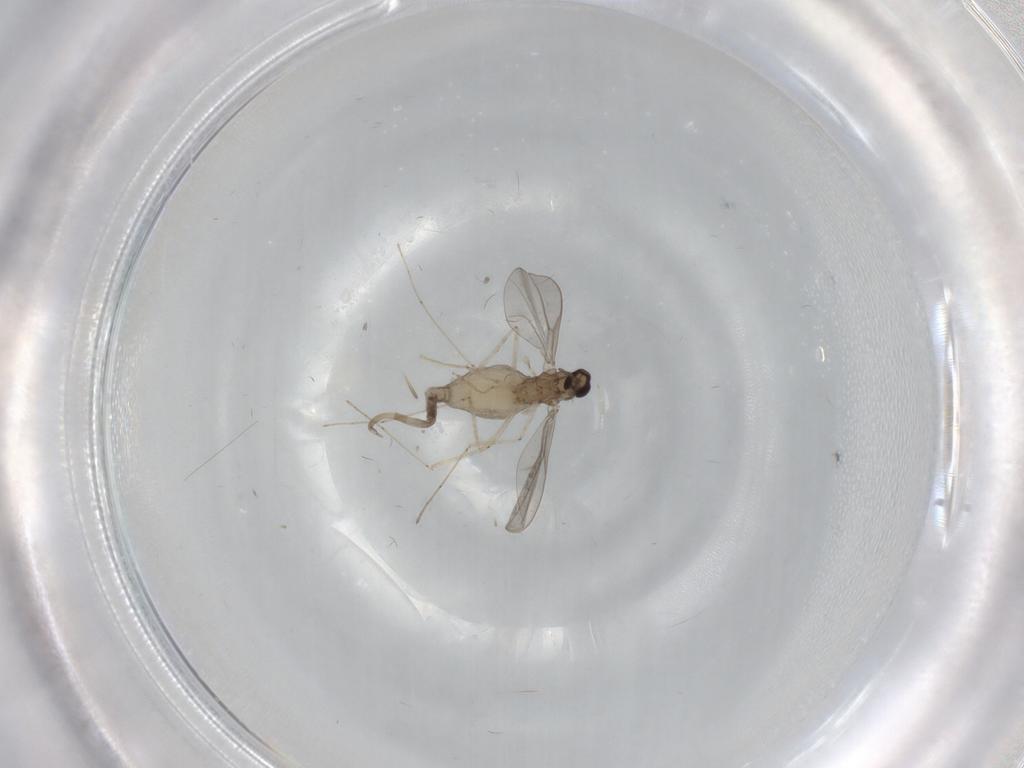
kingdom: Animalia
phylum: Arthropoda
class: Insecta
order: Diptera
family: Cecidomyiidae
